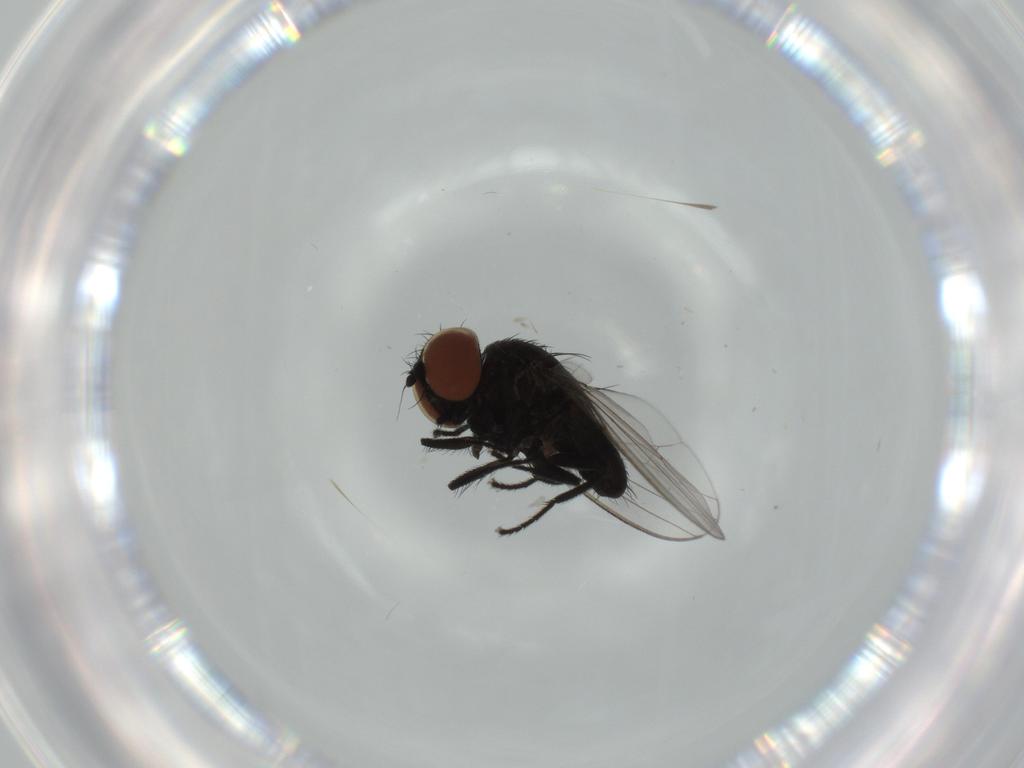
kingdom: Animalia
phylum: Arthropoda
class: Insecta
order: Diptera
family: Milichiidae
